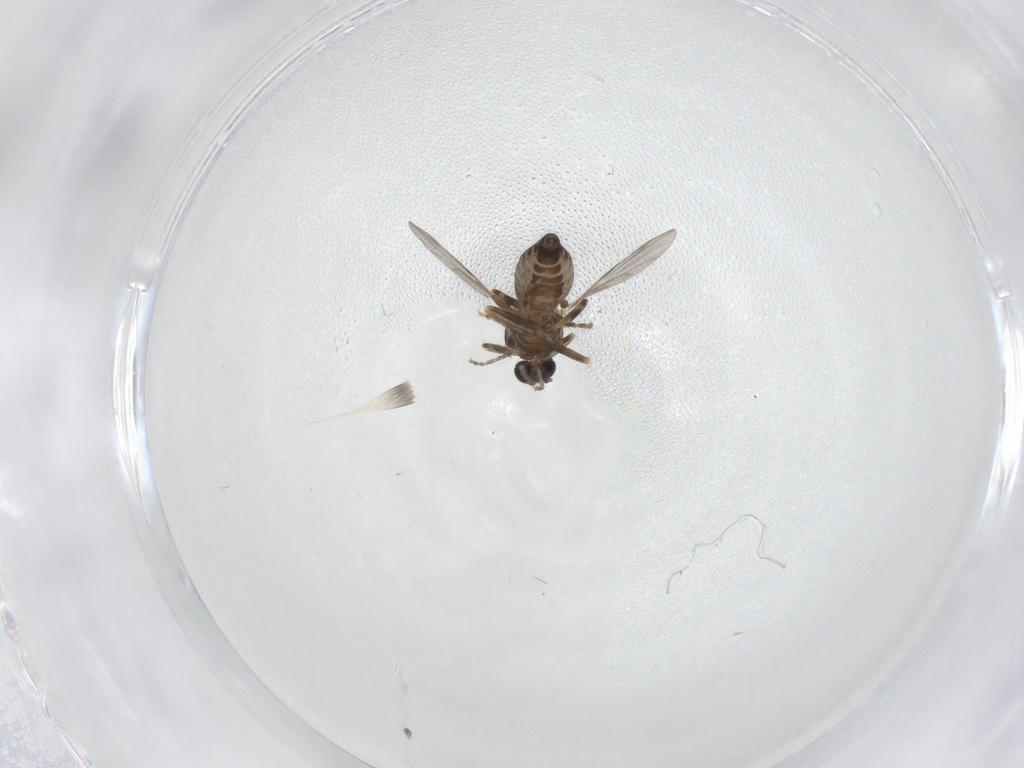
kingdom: Animalia
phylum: Arthropoda
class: Insecta
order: Diptera
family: Ceratopogonidae
